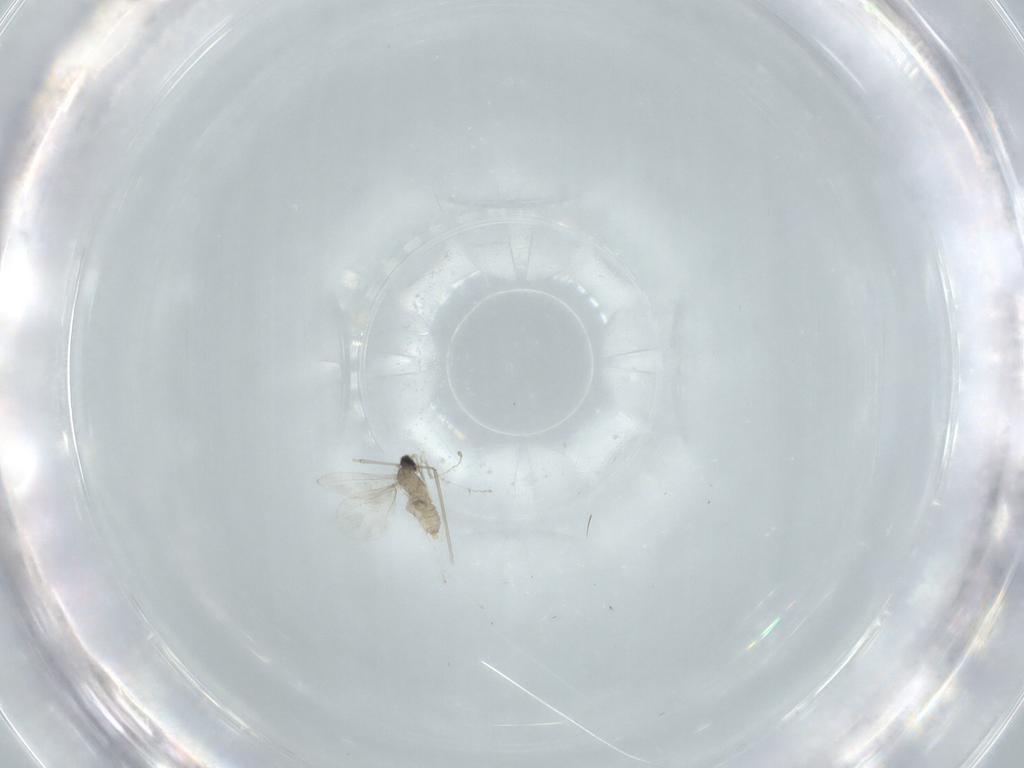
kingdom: Animalia
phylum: Arthropoda
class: Insecta
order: Diptera
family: Cecidomyiidae
